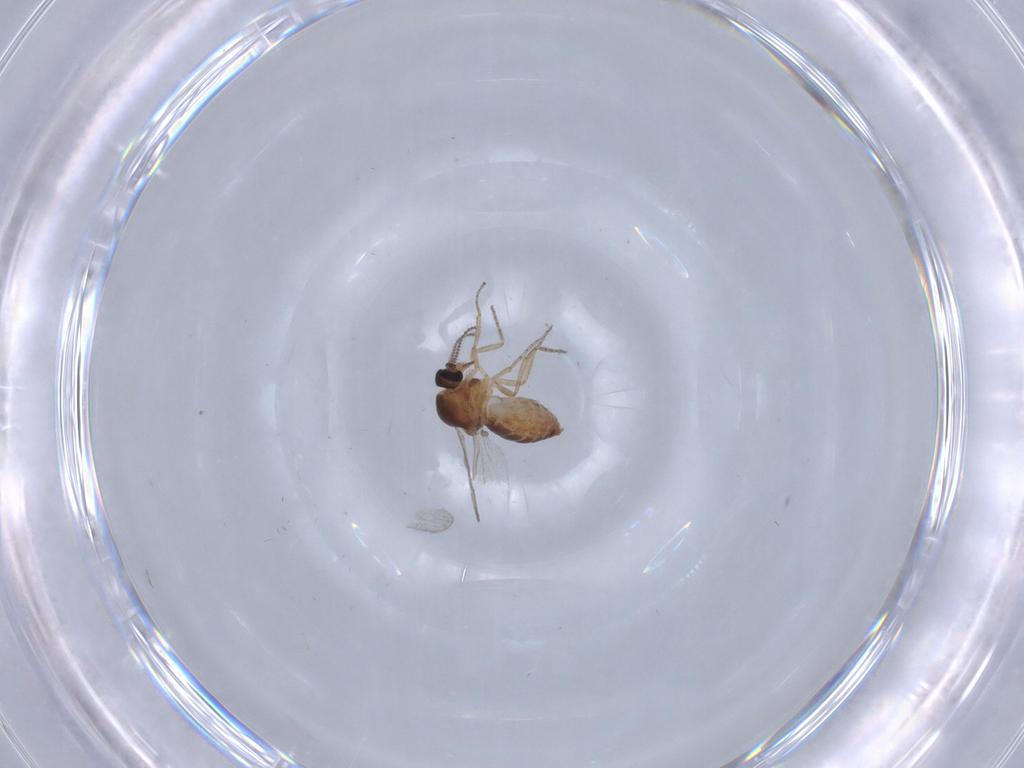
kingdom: Animalia
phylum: Arthropoda
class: Insecta
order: Diptera
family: Ceratopogonidae
